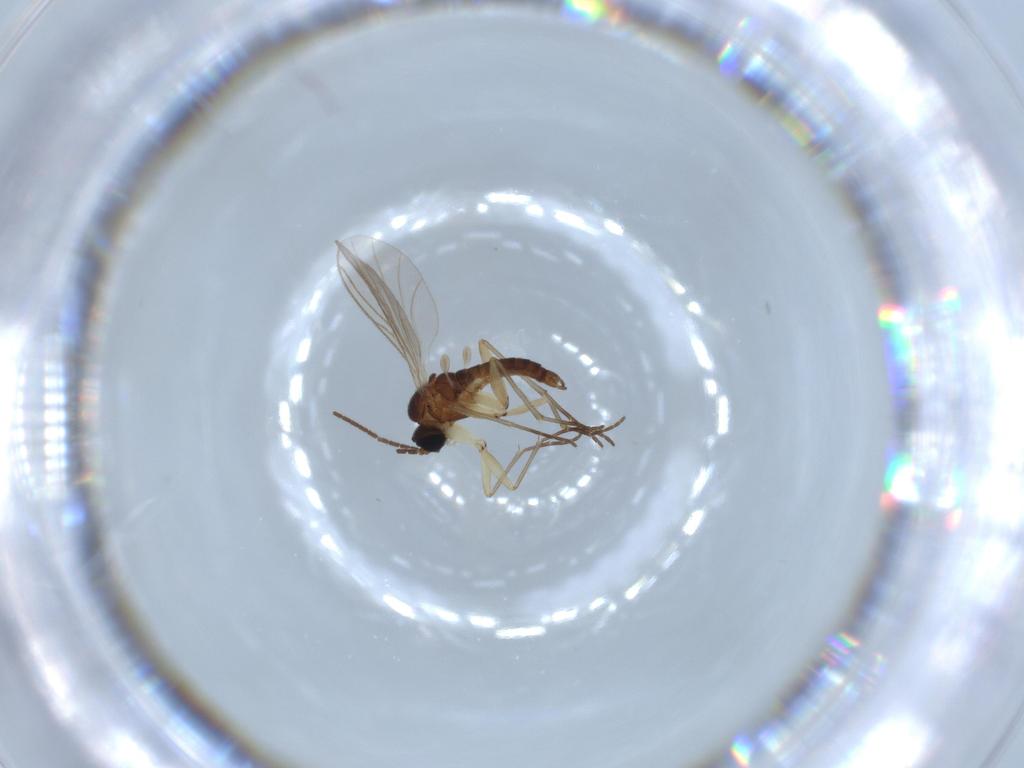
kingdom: Animalia
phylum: Arthropoda
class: Insecta
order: Diptera
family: Sciaridae
